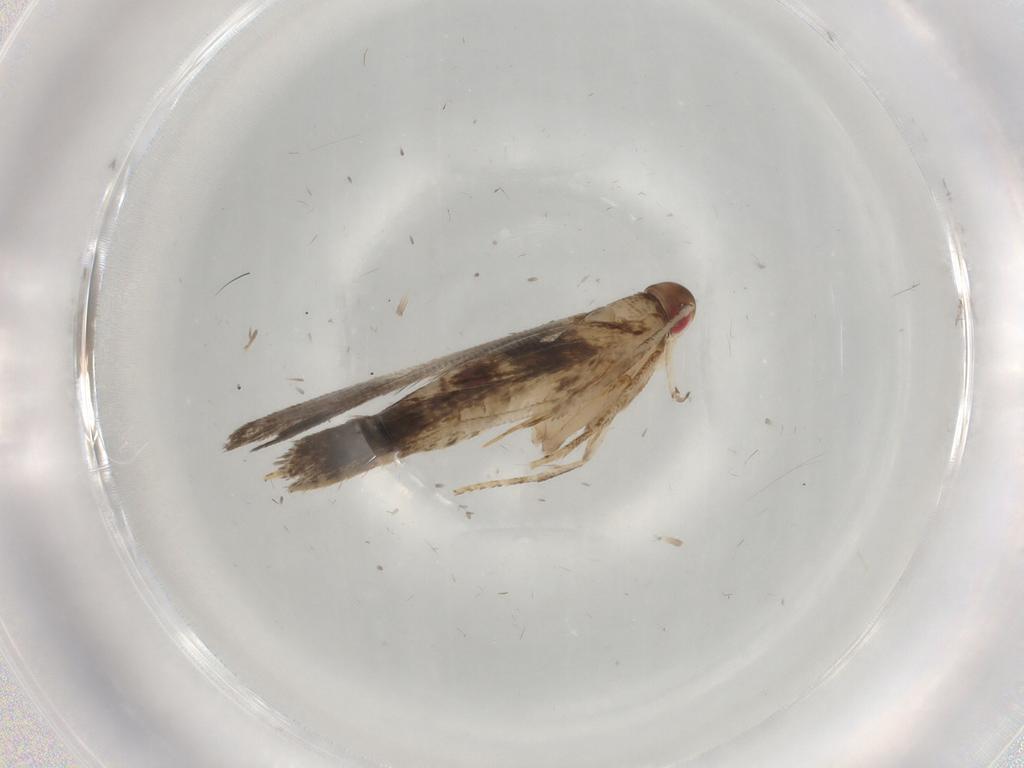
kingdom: Animalia
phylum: Arthropoda
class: Insecta
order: Lepidoptera
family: Gelechiidae
